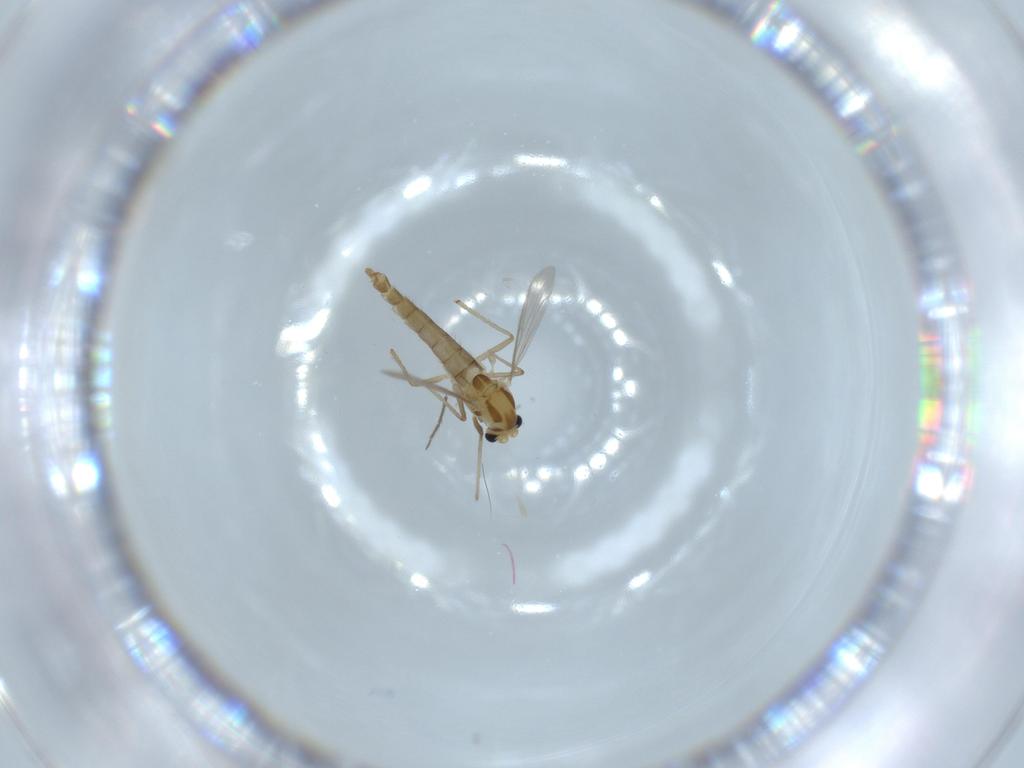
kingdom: Animalia
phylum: Arthropoda
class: Insecta
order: Diptera
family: Chironomidae
